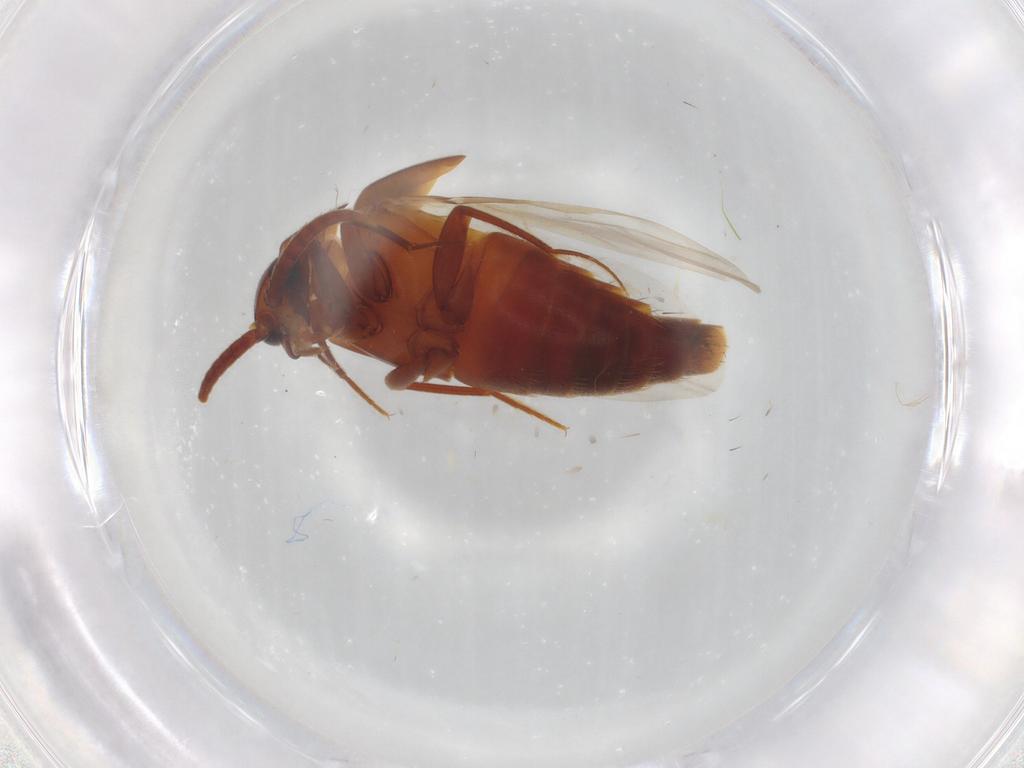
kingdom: Animalia
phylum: Arthropoda
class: Insecta
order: Coleoptera
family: Staphylinidae
